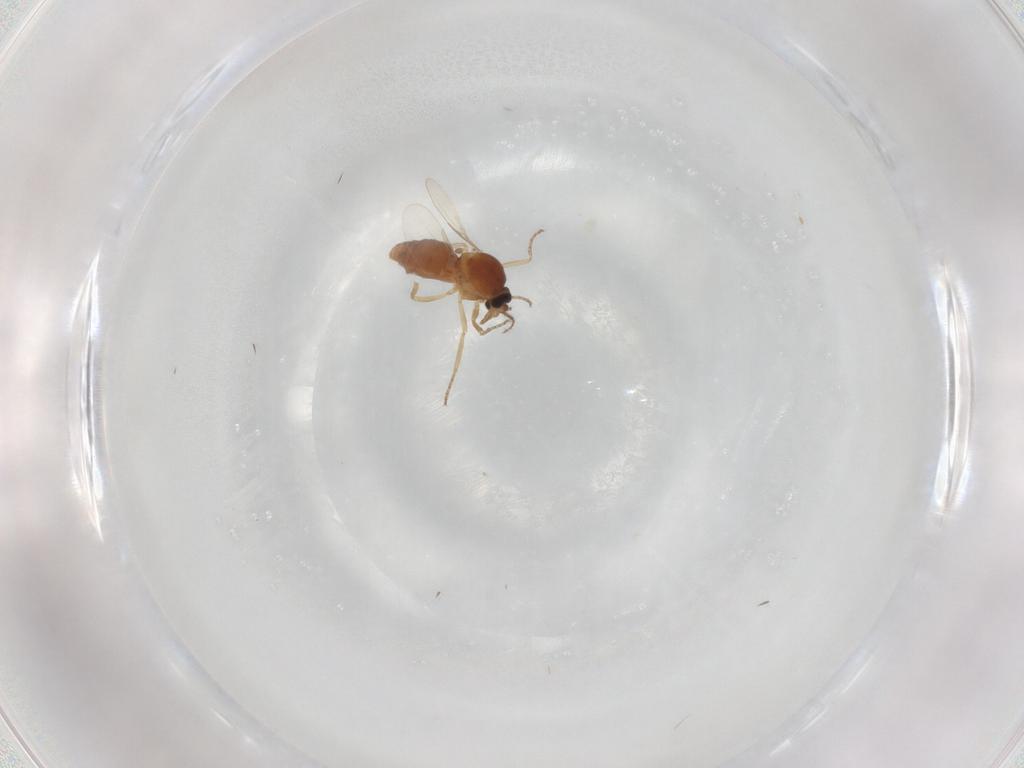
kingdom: Animalia
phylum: Arthropoda
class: Insecta
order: Diptera
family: Ceratopogonidae
